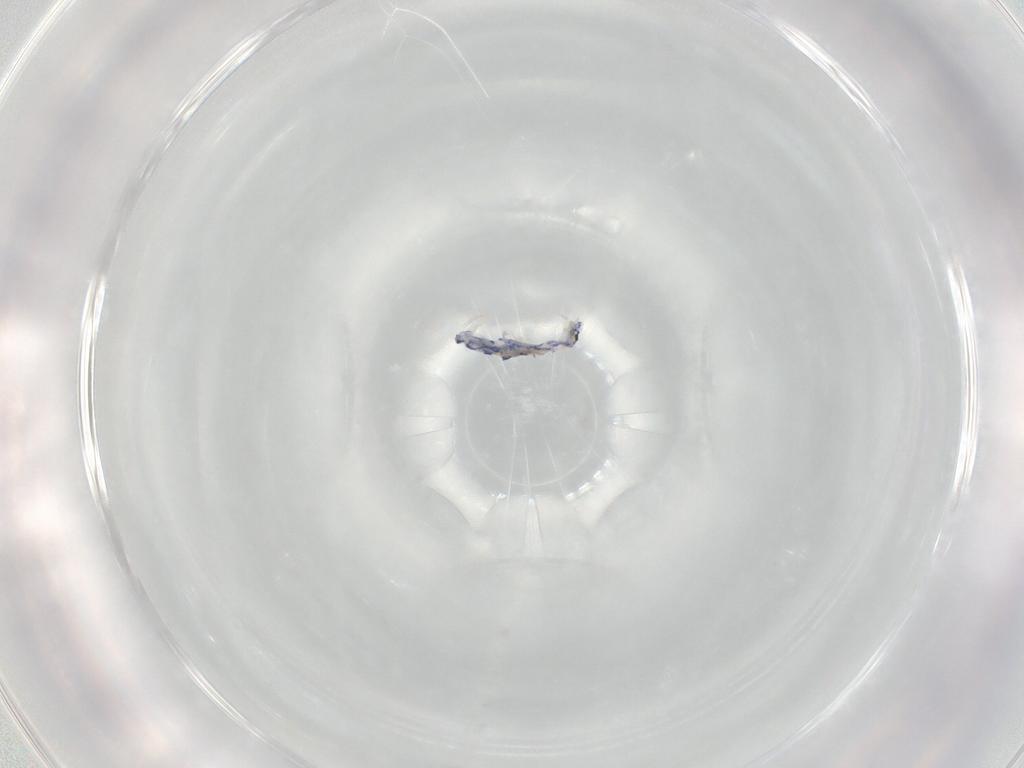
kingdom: Animalia
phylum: Arthropoda
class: Collembola
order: Entomobryomorpha
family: Entomobryidae
